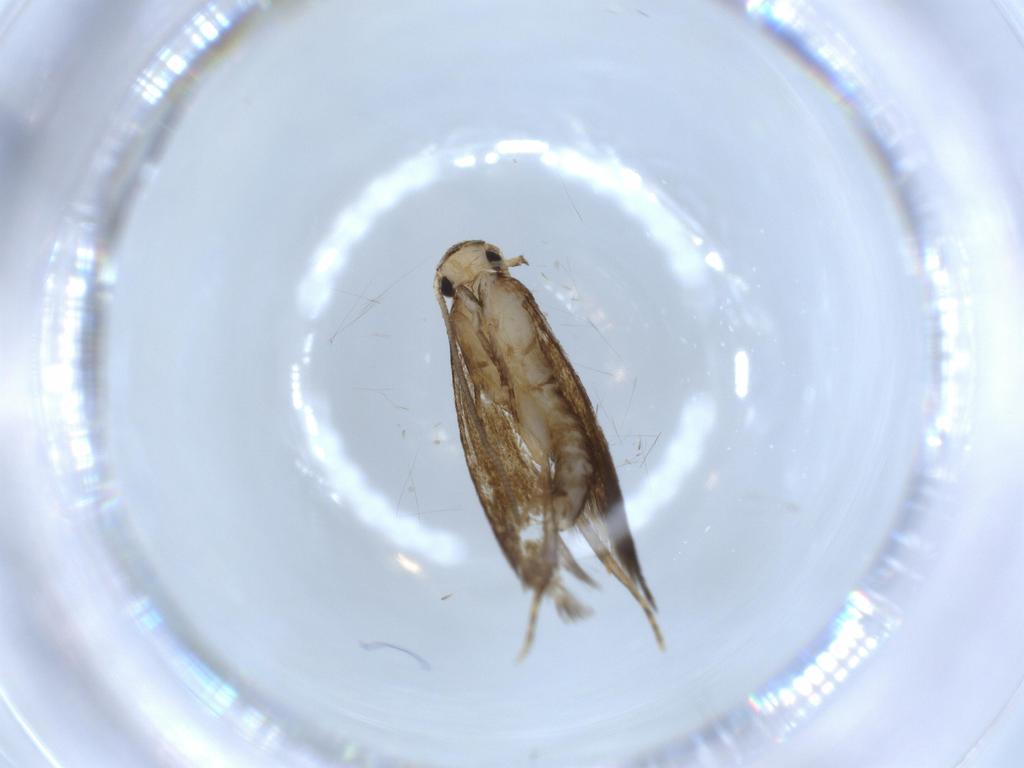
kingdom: Animalia
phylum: Arthropoda
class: Insecta
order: Lepidoptera
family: Tineidae
